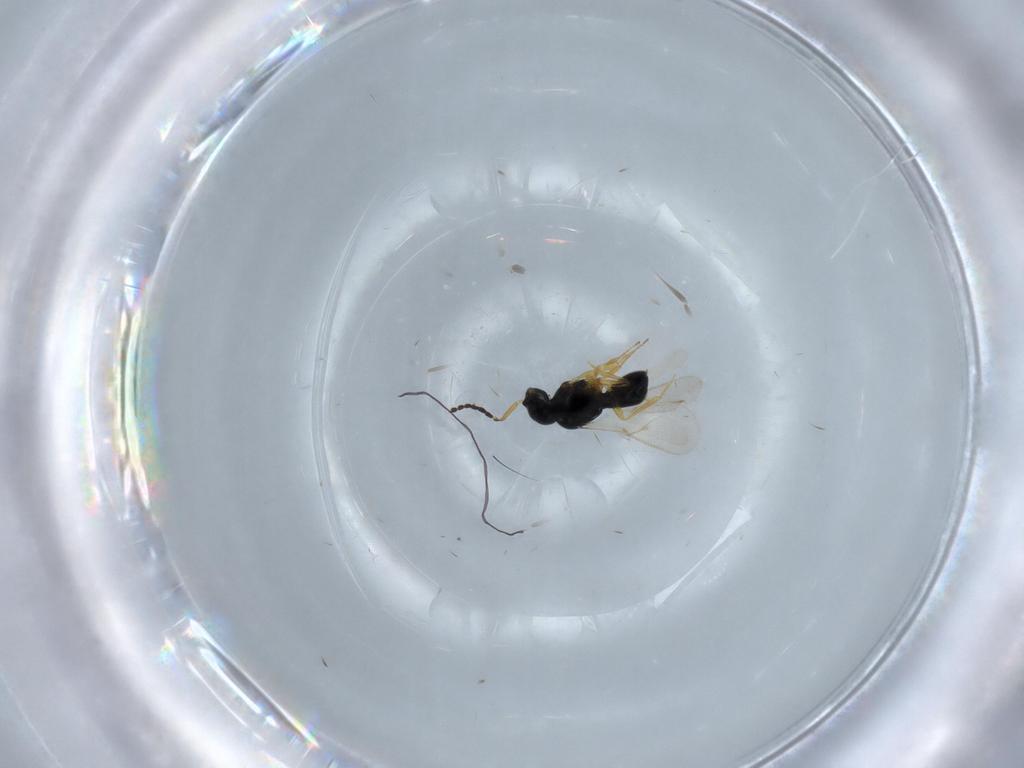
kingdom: Animalia
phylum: Arthropoda
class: Insecta
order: Hymenoptera
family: Formicidae
